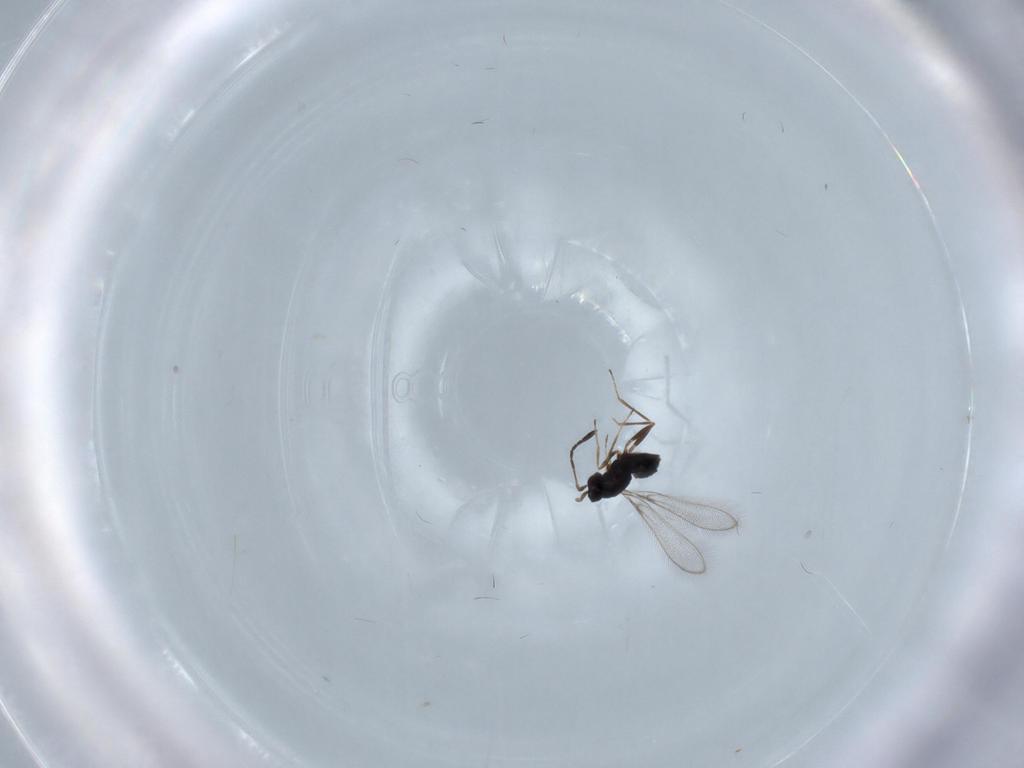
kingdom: Animalia
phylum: Arthropoda
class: Insecta
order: Hymenoptera
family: Mymaridae
